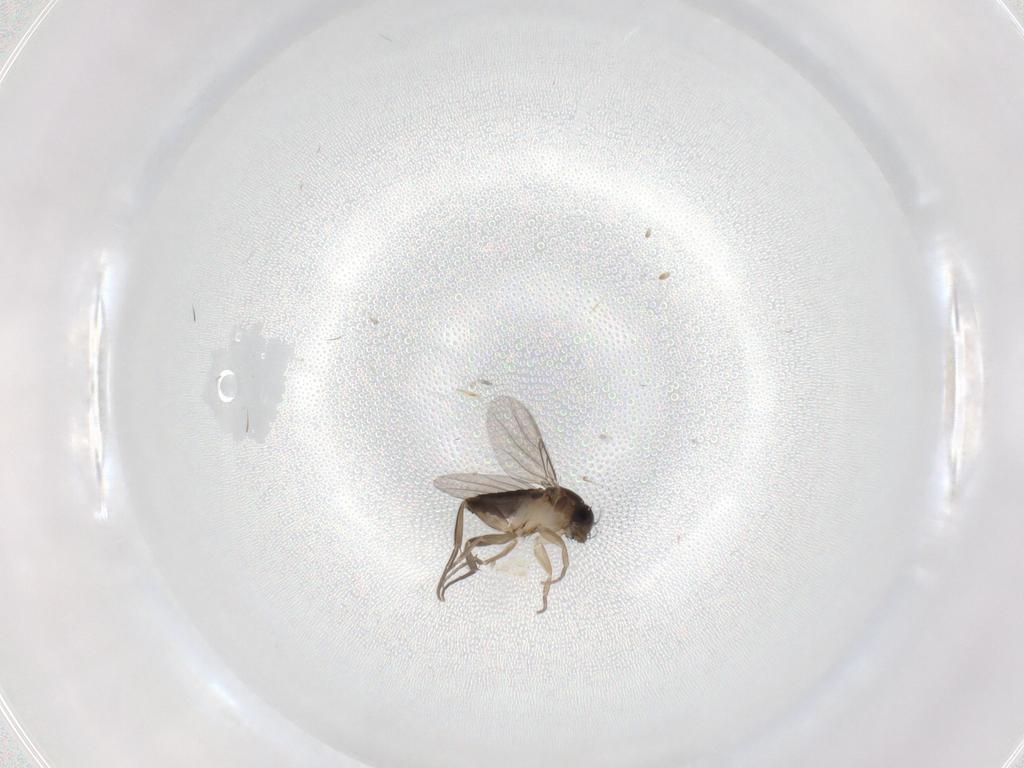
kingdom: Animalia
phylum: Arthropoda
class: Insecta
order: Diptera
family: Phoridae
